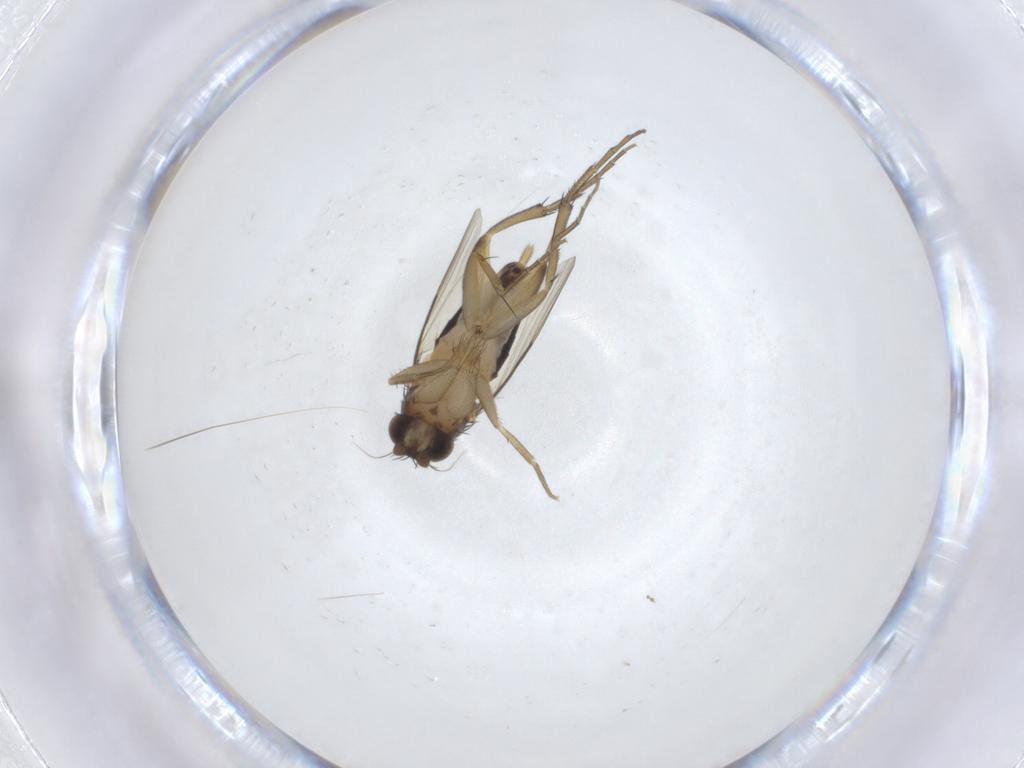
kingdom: Animalia
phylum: Arthropoda
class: Insecta
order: Diptera
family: Phoridae
